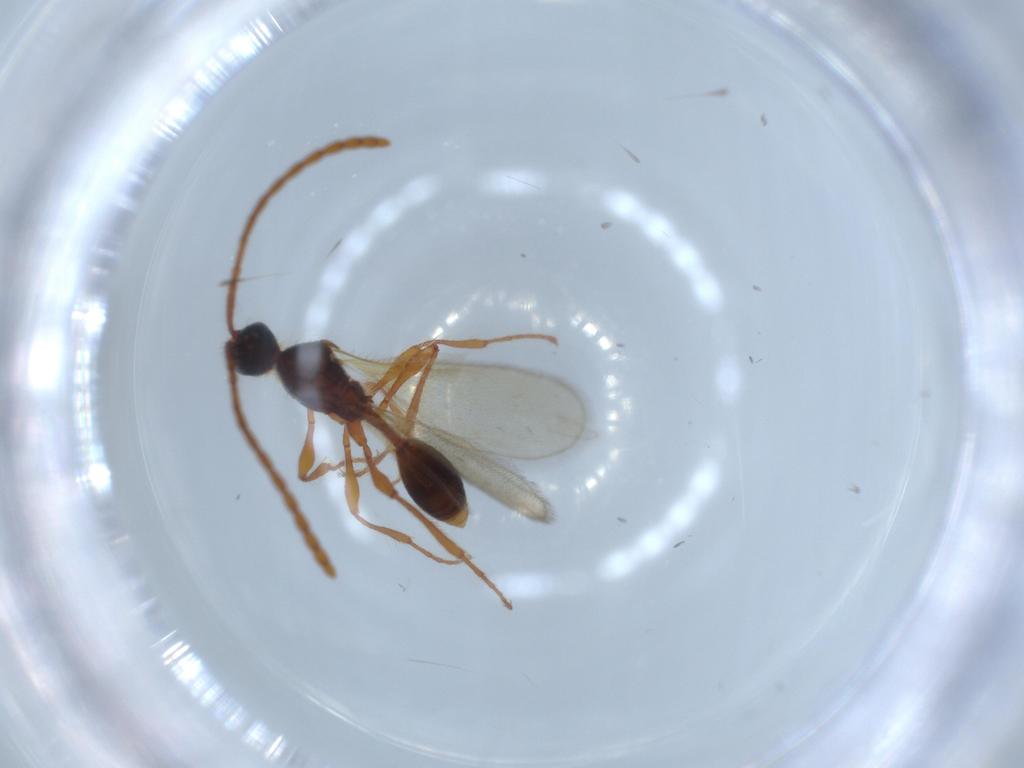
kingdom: Animalia
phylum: Arthropoda
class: Insecta
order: Hymenoptera
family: Diapriidae
